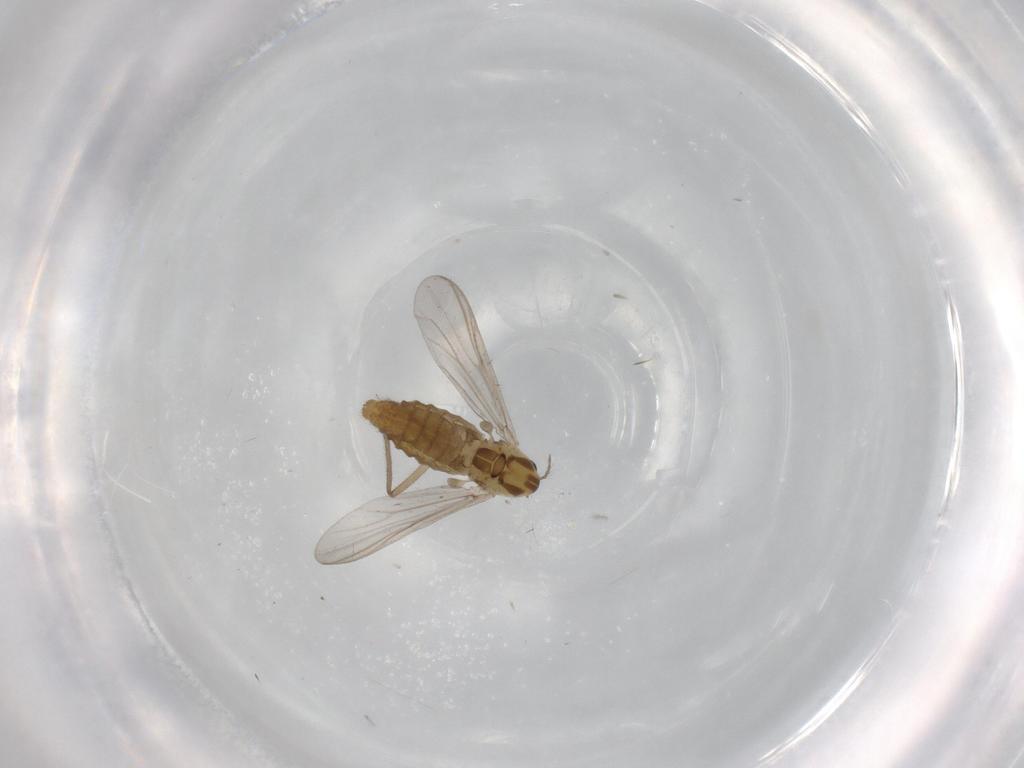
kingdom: Animalia
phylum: Arthropoda
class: Insecta
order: Diptera
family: Chironomidae
